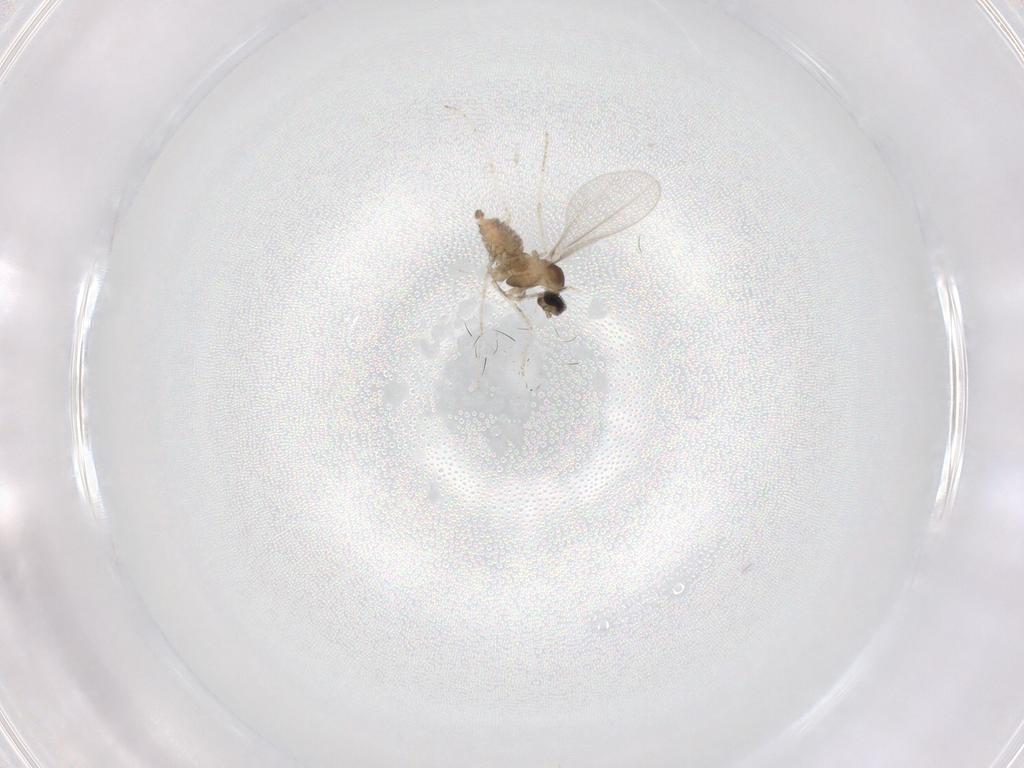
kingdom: Animalia
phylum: Arthropoda
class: Insecta
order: Diptera
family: Cecidomyiidae
